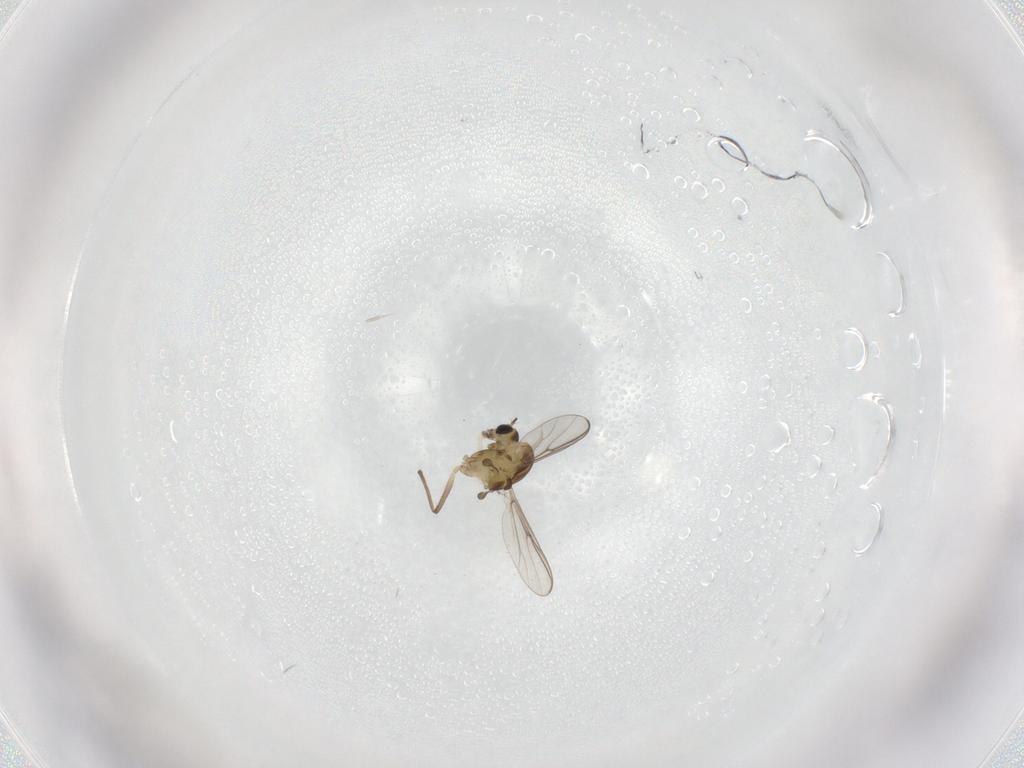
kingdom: Animalia
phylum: Arthropoda
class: Insecta
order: Diptera
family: Chironomidae
